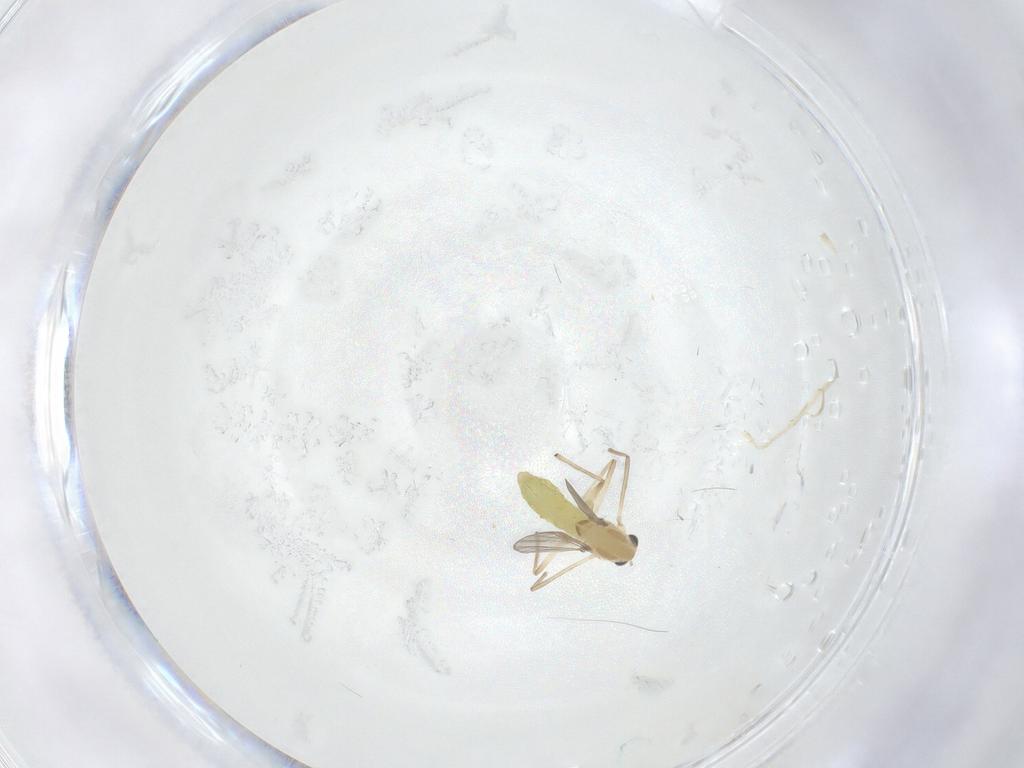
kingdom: Animalia
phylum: Arthropoda
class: Insecta
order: Diptera
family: Chironomidae
